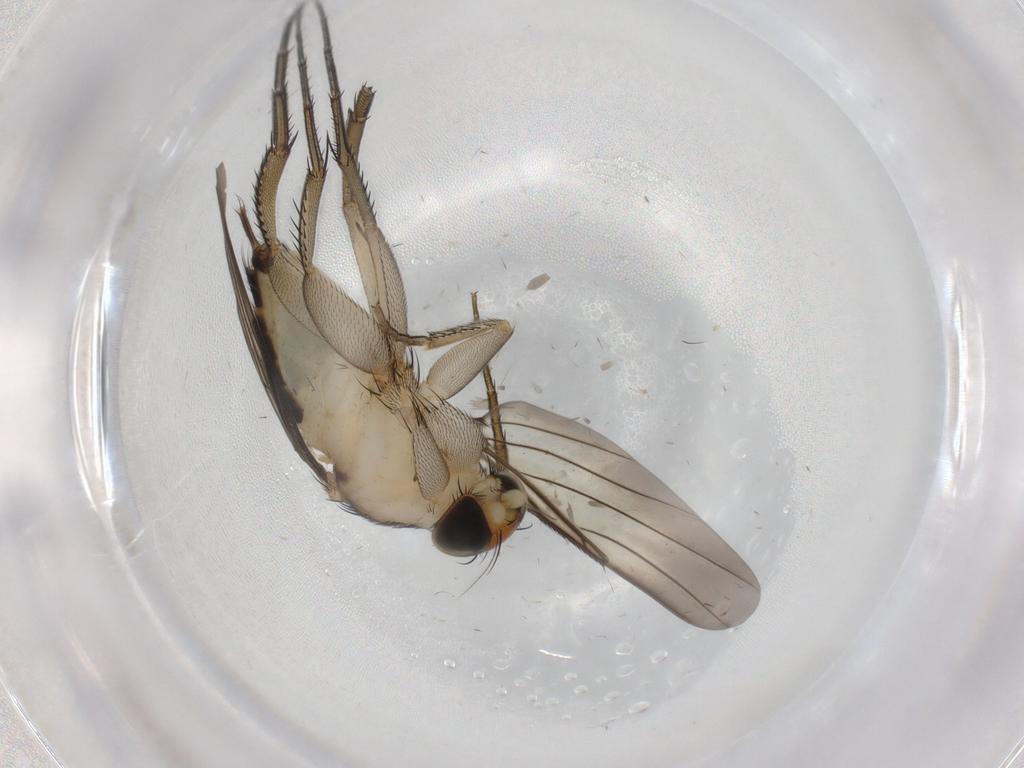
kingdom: Animalia
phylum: Arthropoda
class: Insecta
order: Diptera
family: Phoridae
